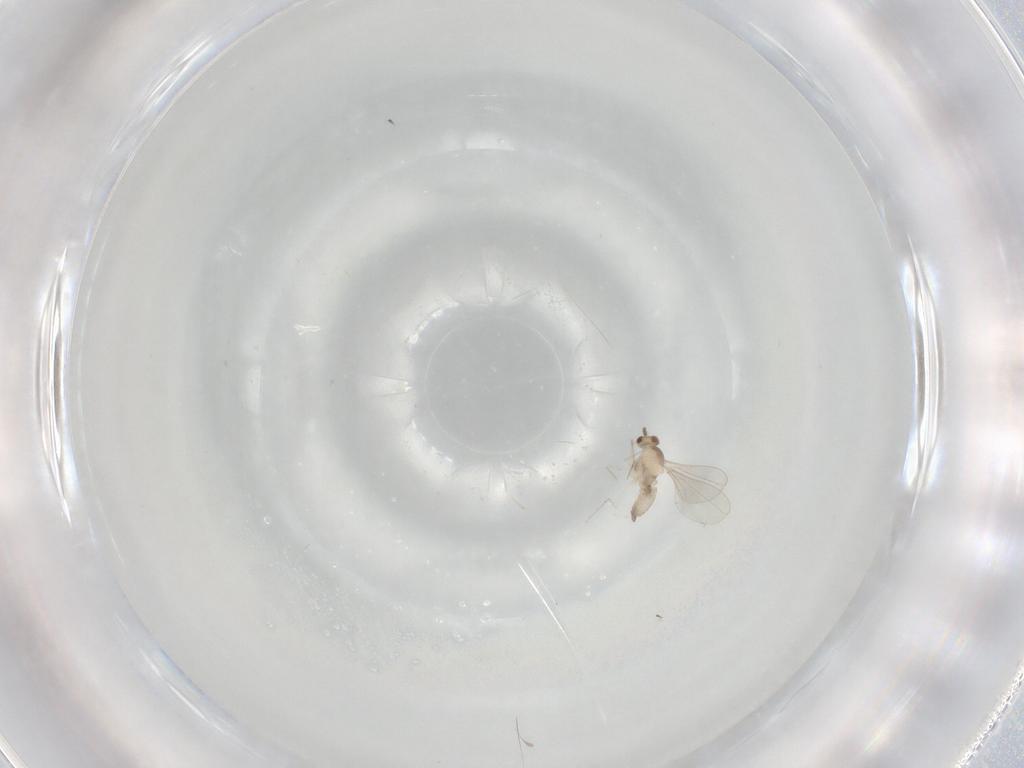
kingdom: Animalia
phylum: Arthropoda
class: Insecta
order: Diptera
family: Cecidomyiidae
